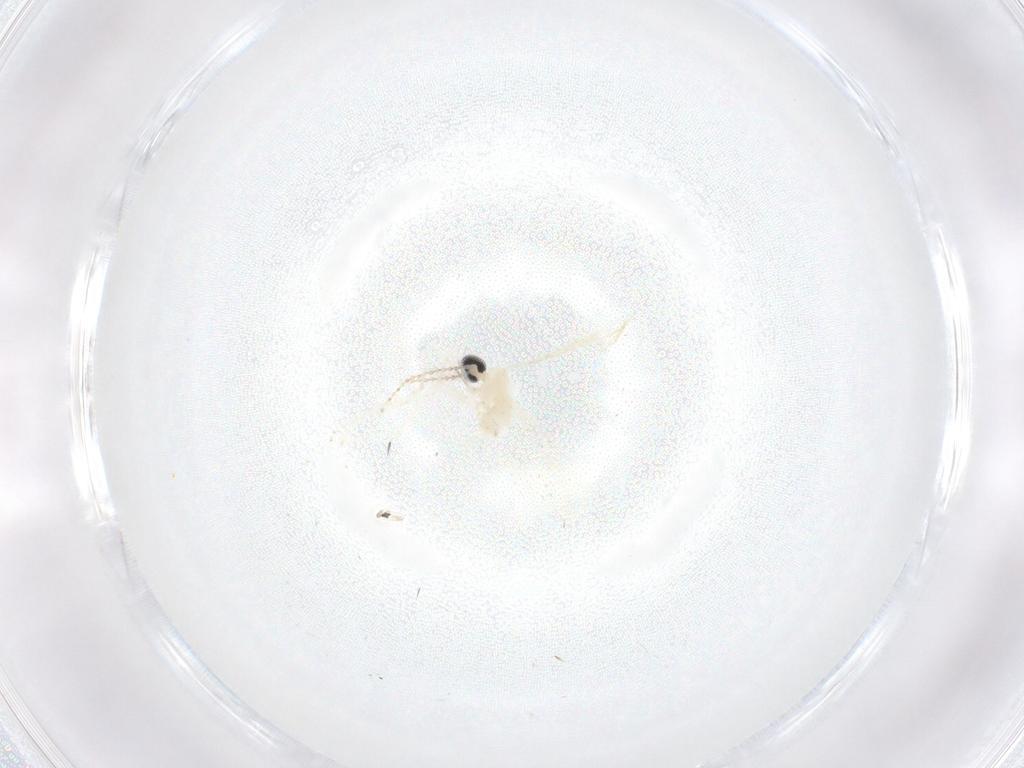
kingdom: Animalia
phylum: Arthropoda
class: Insecta
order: Diptera
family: Cecidomyiidae
